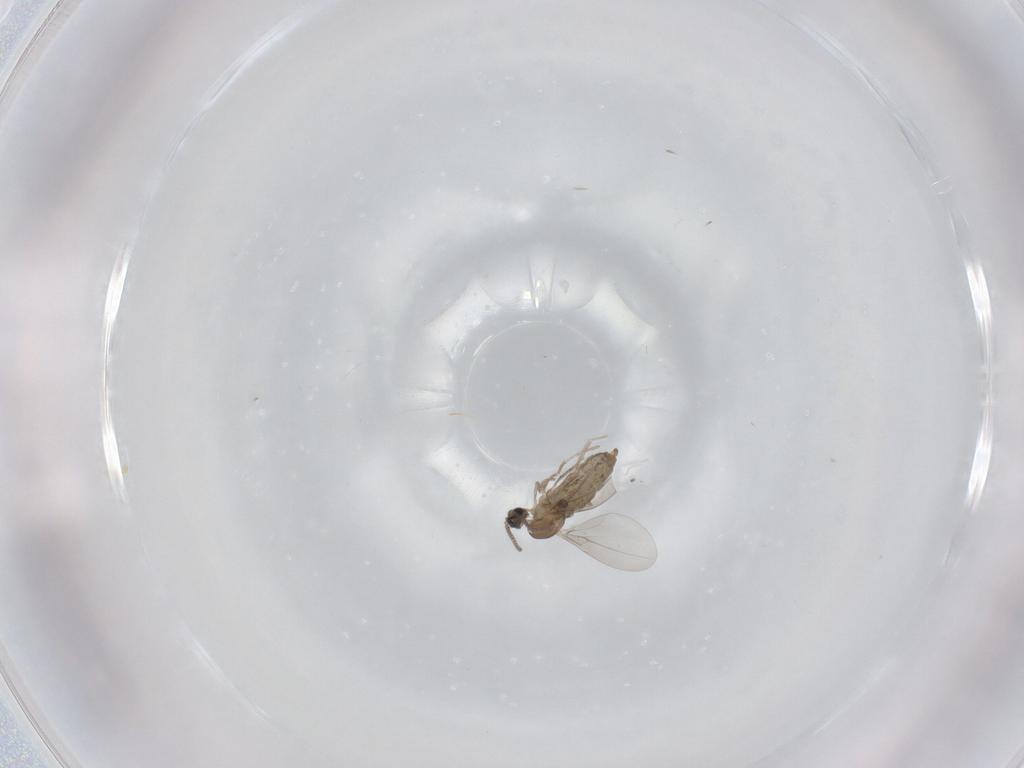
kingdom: Animalia
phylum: Arthropoda
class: Insecta
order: Diptera
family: Cecidomyiidae
